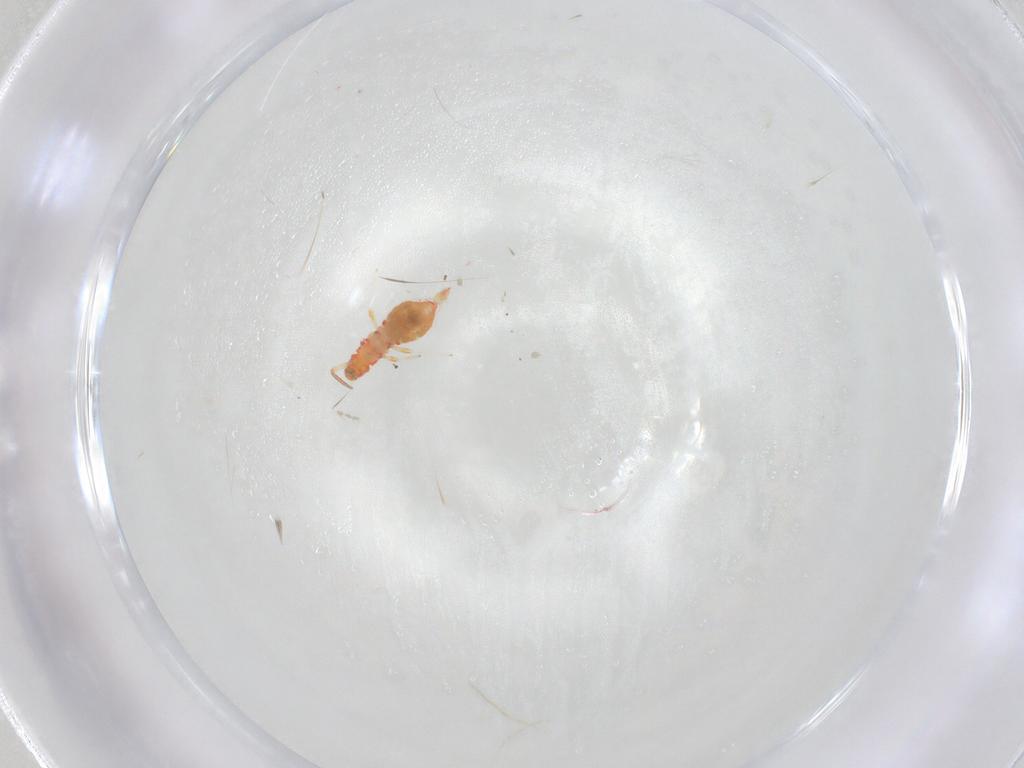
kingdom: Animalia
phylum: Arthropoda
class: Insecta
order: Thysanoptera
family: Aeolothripidae
